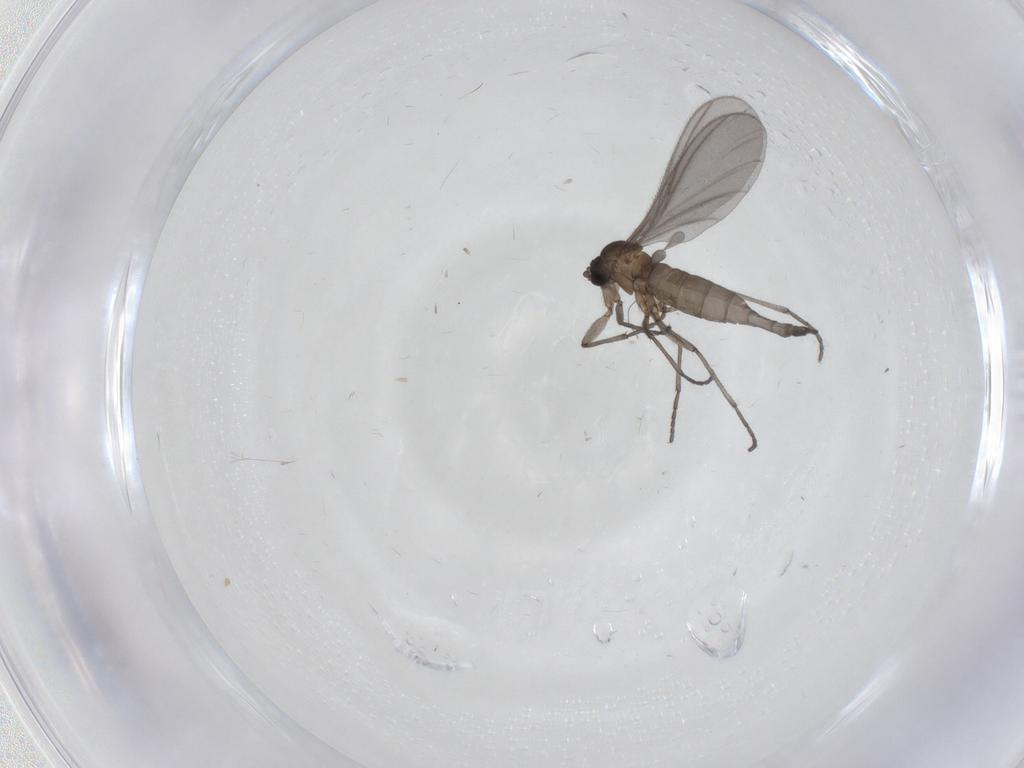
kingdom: Animalia
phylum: Arthropoda
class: Insecta
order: Diptera
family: Sciaridae
